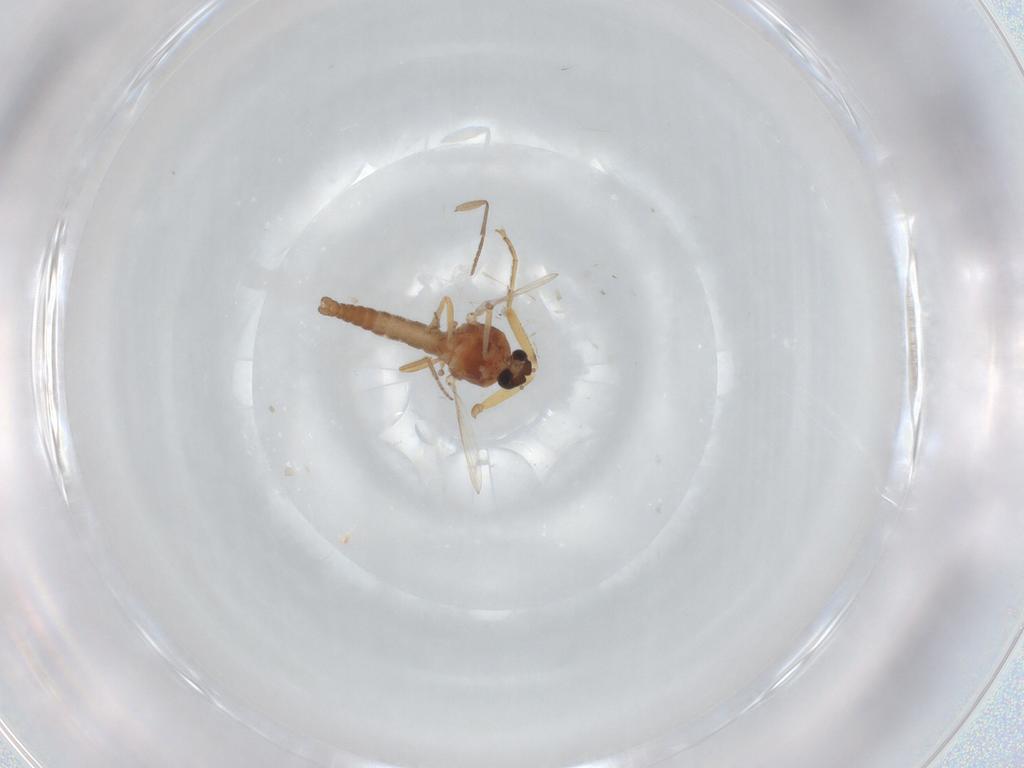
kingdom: Animalia
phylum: Arthropoda
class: Insecta
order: Diptera
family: Ceratopogonidae
